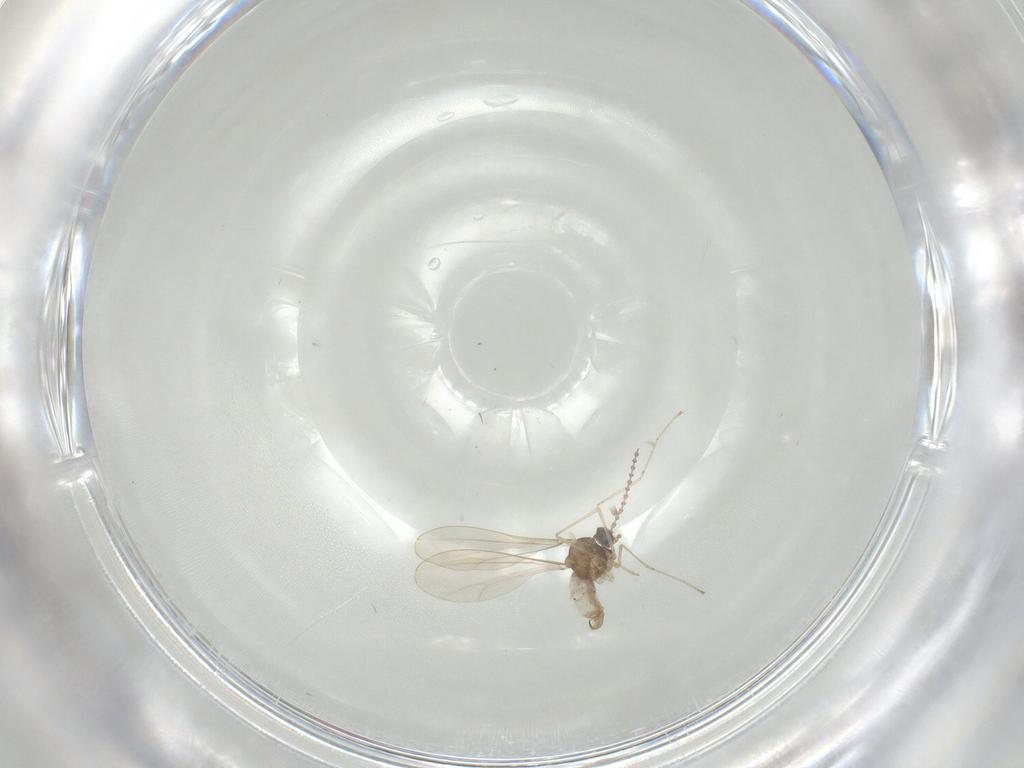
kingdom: Animalia
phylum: Arthropoda
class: Insecta
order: Diptera
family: Cecidomyiidae
